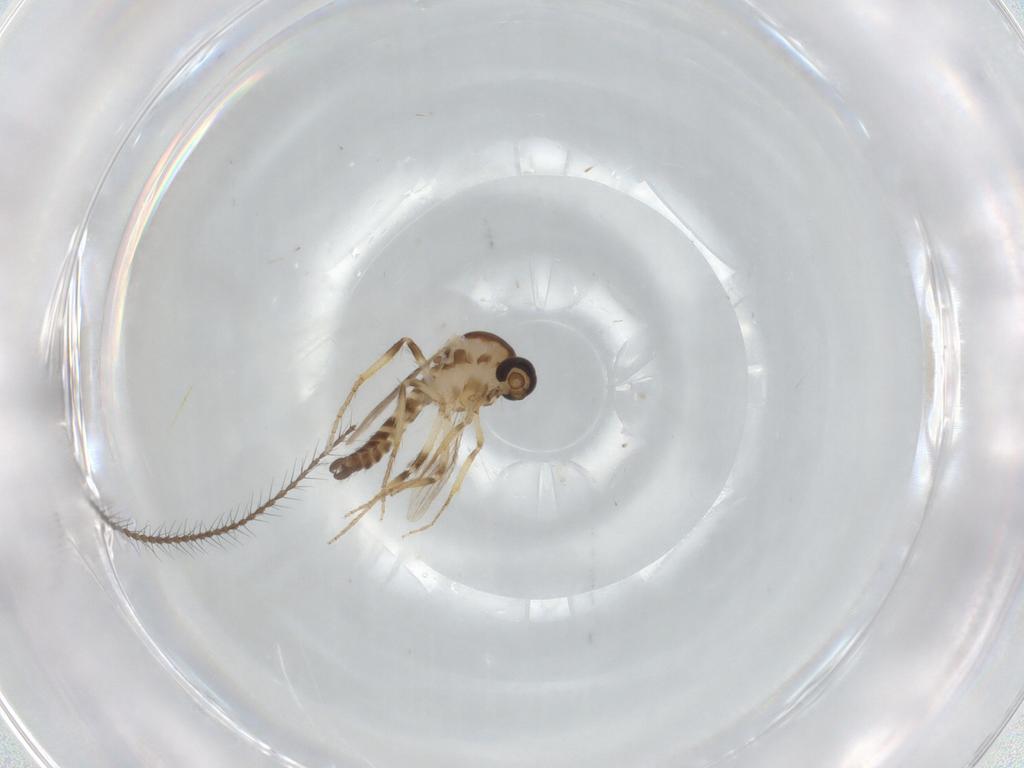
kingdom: Animalia
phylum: Arthropoda
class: Insecta
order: Diptera
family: Ceratopogonidae
